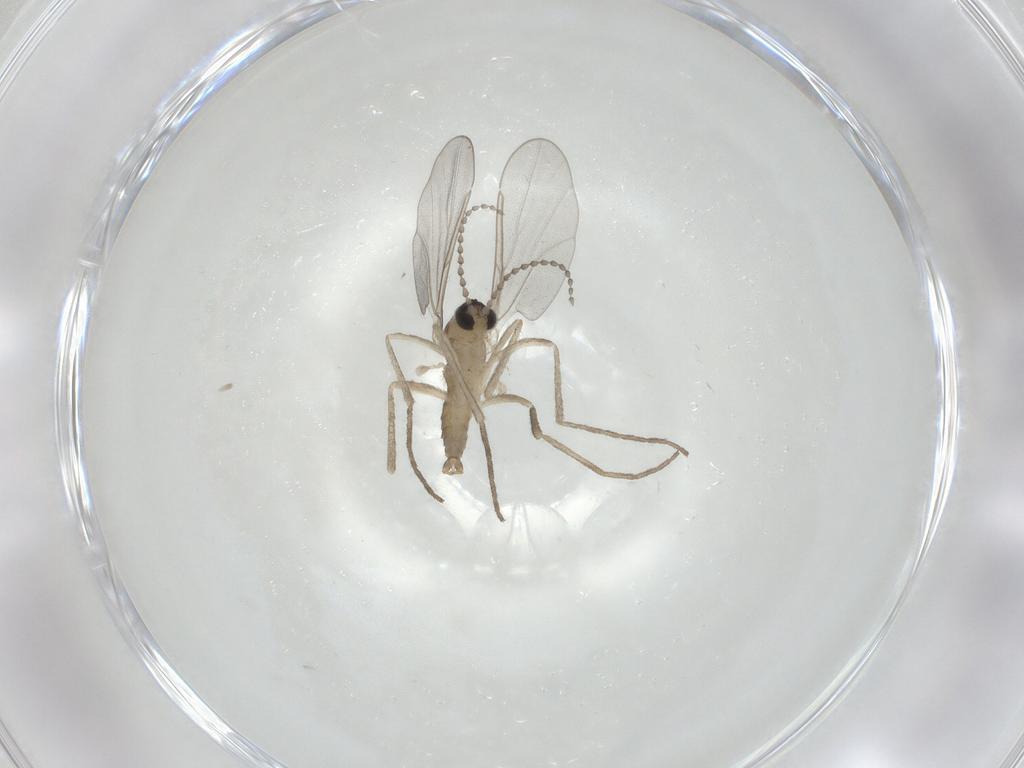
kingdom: Animalia
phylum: Arthropoda
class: Insecta
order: Diptera
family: Cecidomyiidae
